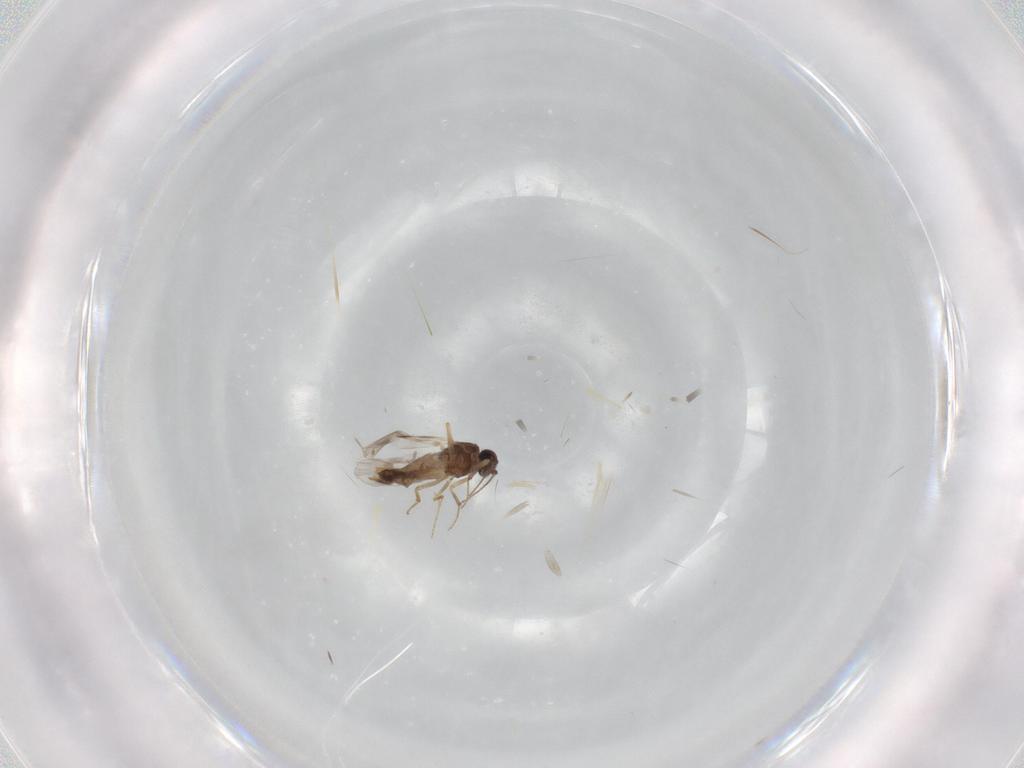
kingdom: Animalia
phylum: Arthropoda
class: Insecta
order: Diptera
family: Ceratopogonidae
